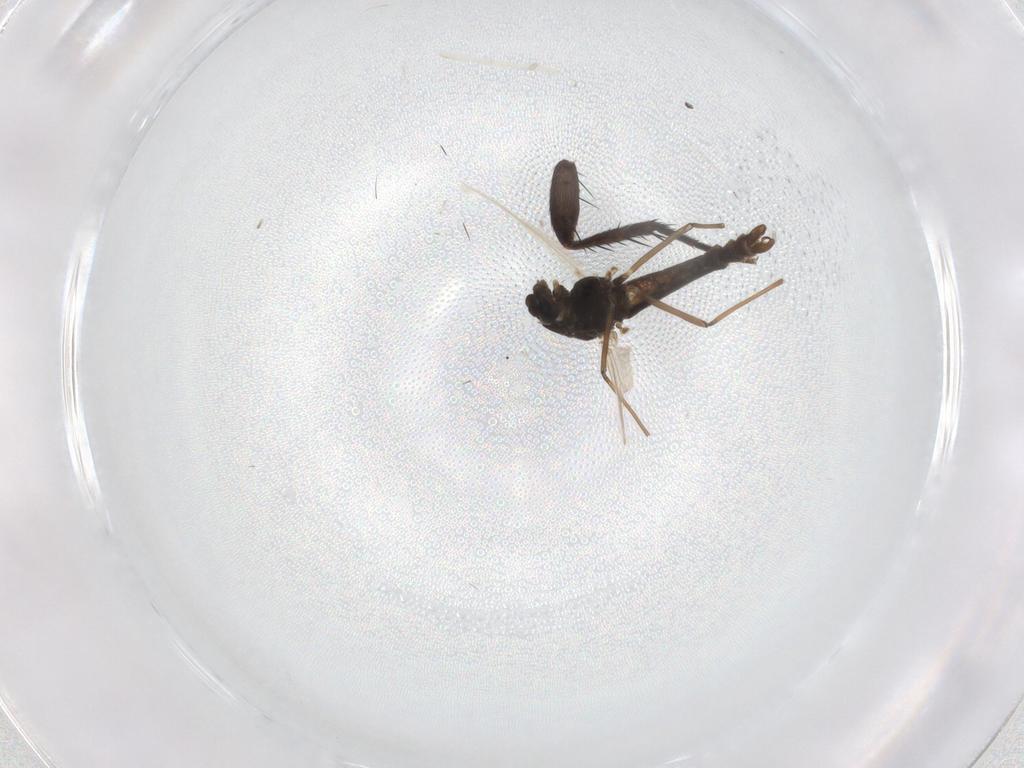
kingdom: Animalia
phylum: Arthropoda
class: Insecta
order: Diptera
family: Tachinidae
